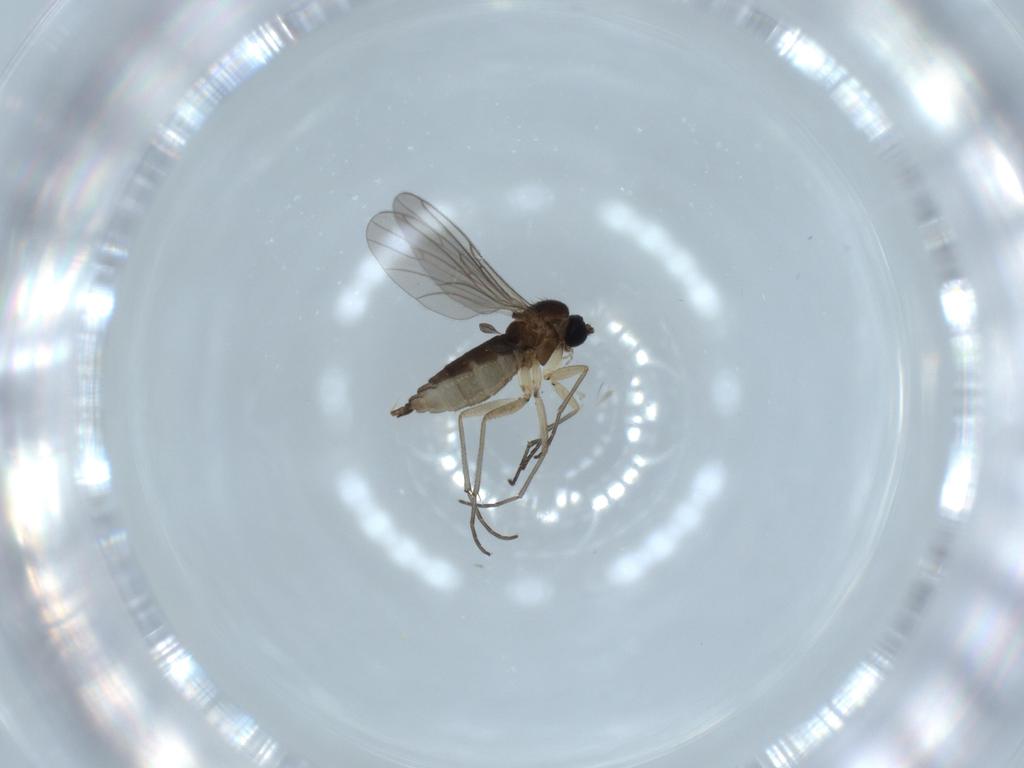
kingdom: Animalia
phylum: Arthropoda
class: Insecta
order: Diptera
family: Sciaridae
